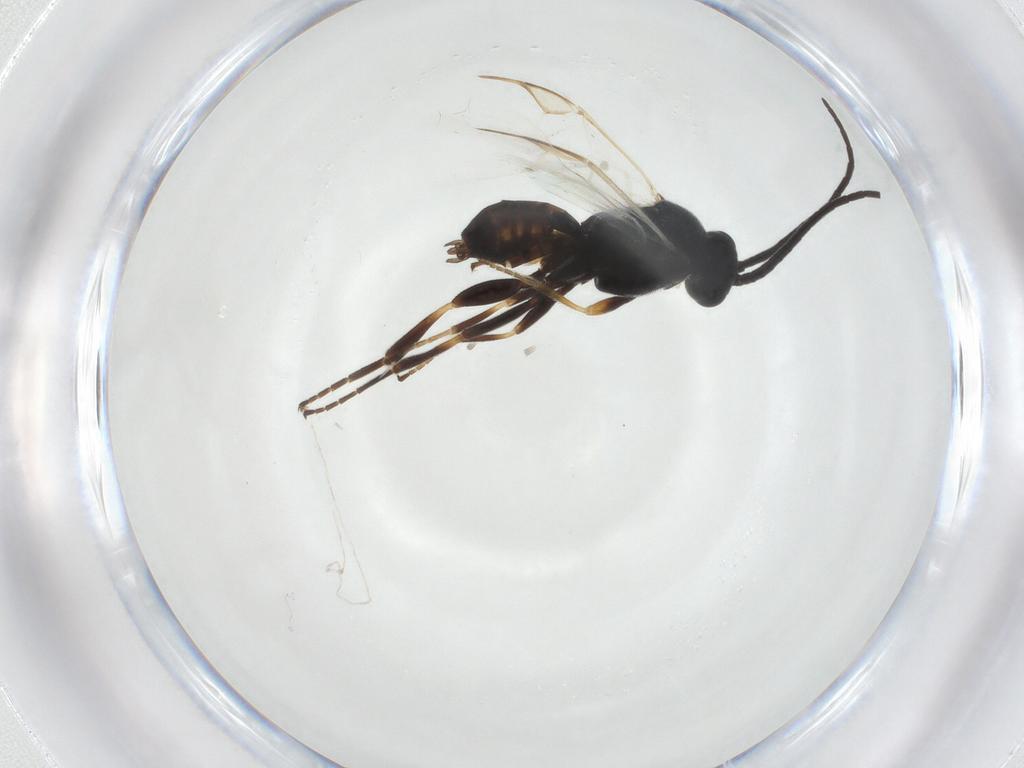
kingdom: Animalia
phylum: Arthropoda
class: Insecta
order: Hymenoptera
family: Braconidae
